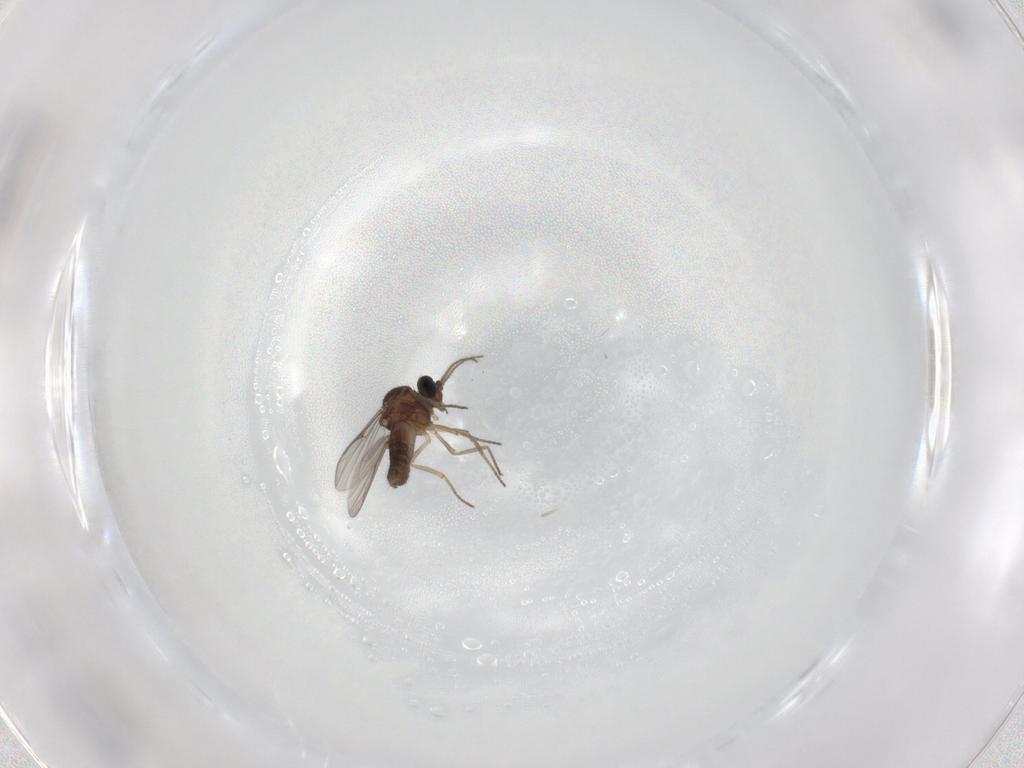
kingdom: Animalia
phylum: Arthropoda
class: Insecta
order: Diptera
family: Ceratopogonidae
